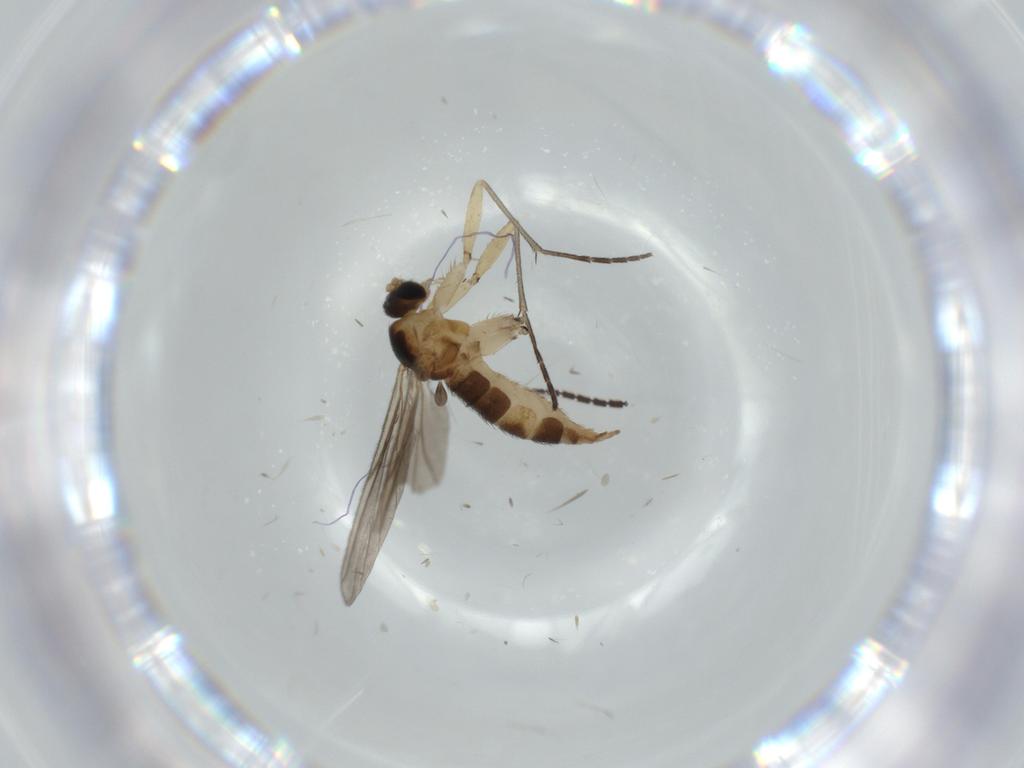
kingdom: Animalia
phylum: Arthropoda
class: Insecta
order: Diptera
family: Sciaridae
